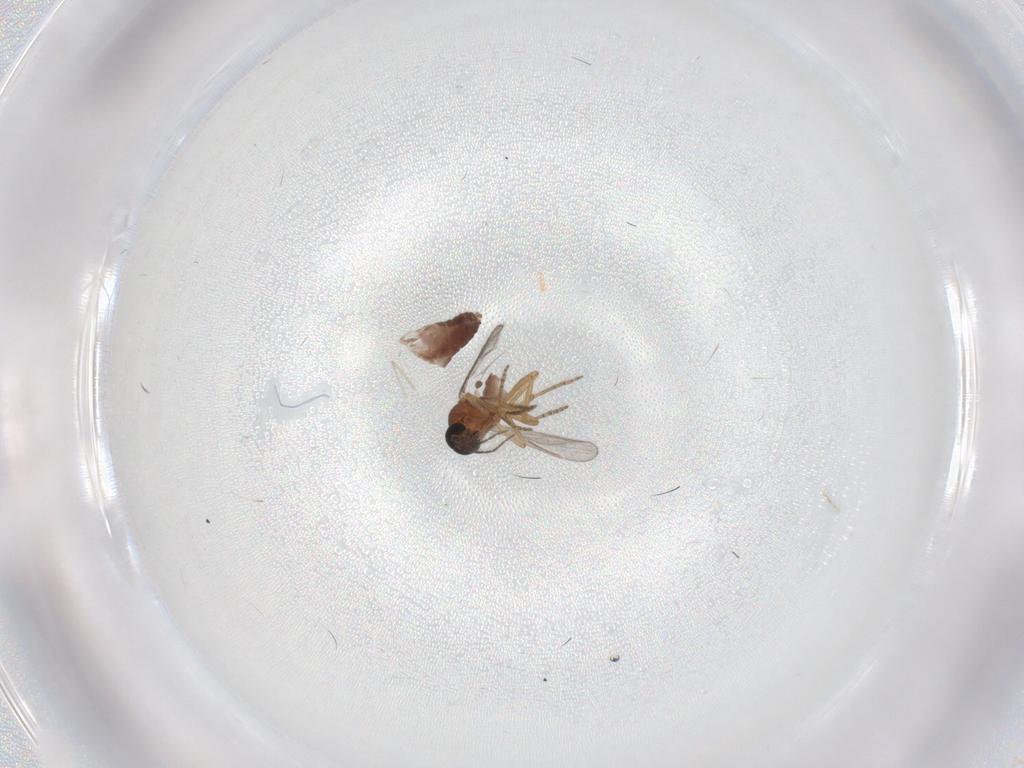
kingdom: Animalia
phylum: Arthropoda
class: Insecta
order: Diptera
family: Ceratopogonidae
